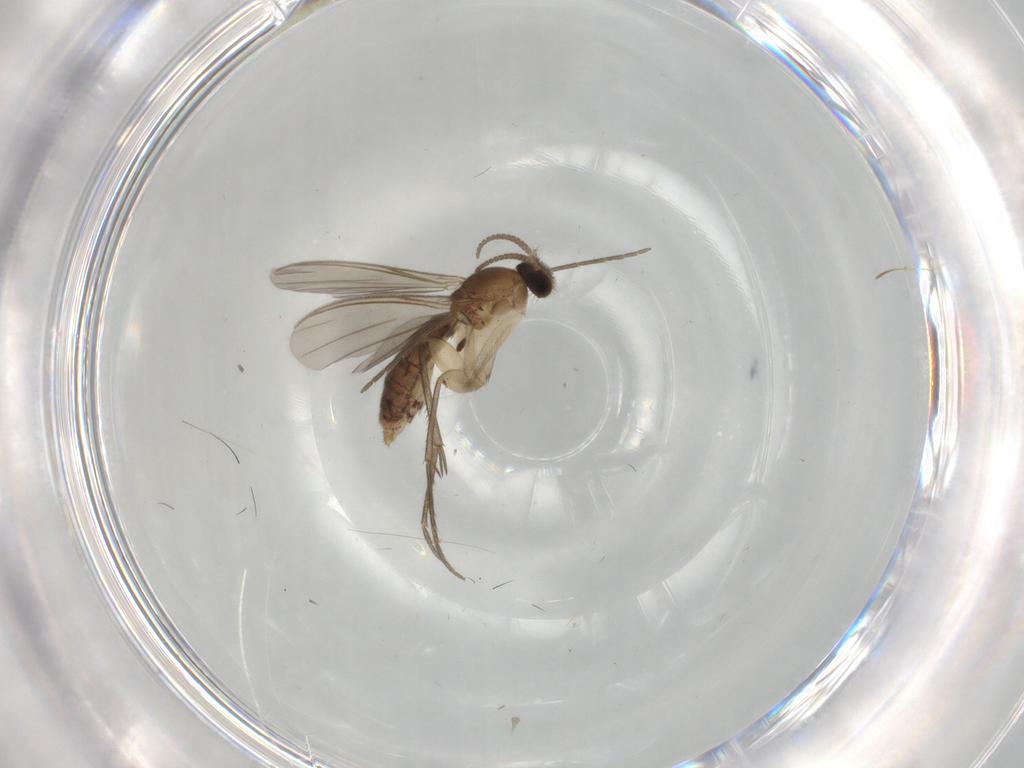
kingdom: Animalia
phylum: Arthropoda
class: Insecta
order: Diptera
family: Mycetophilidae
